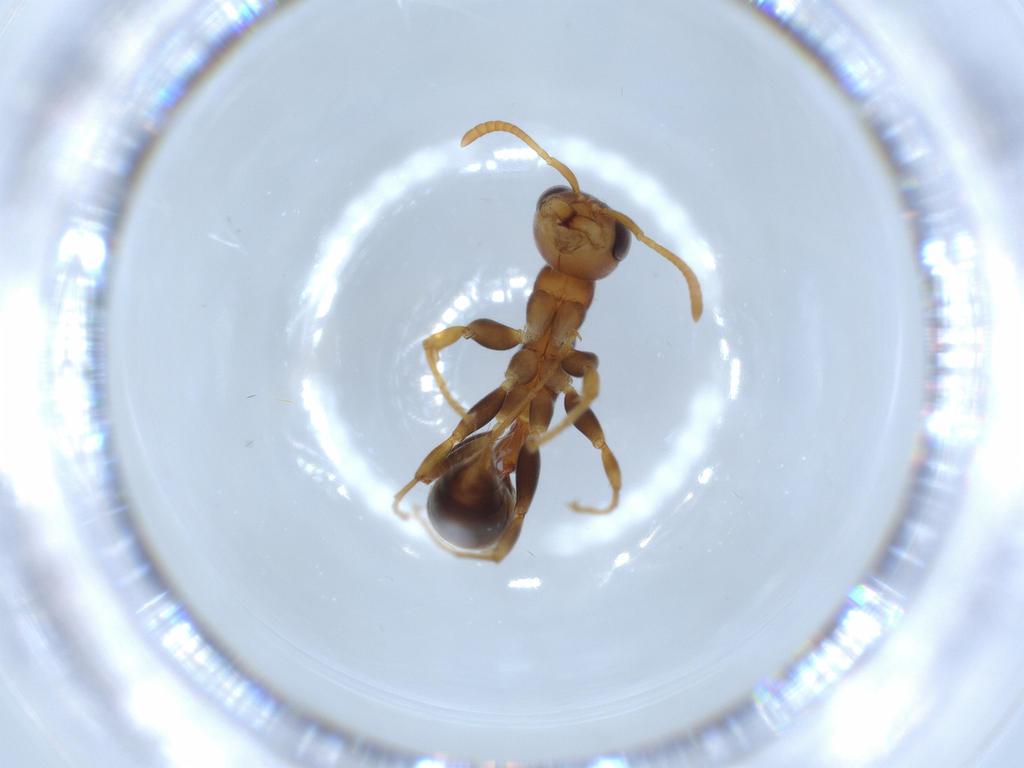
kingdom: Animalia
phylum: Arthropoda
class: Insecta
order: Hymenoptera
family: Formicidae
